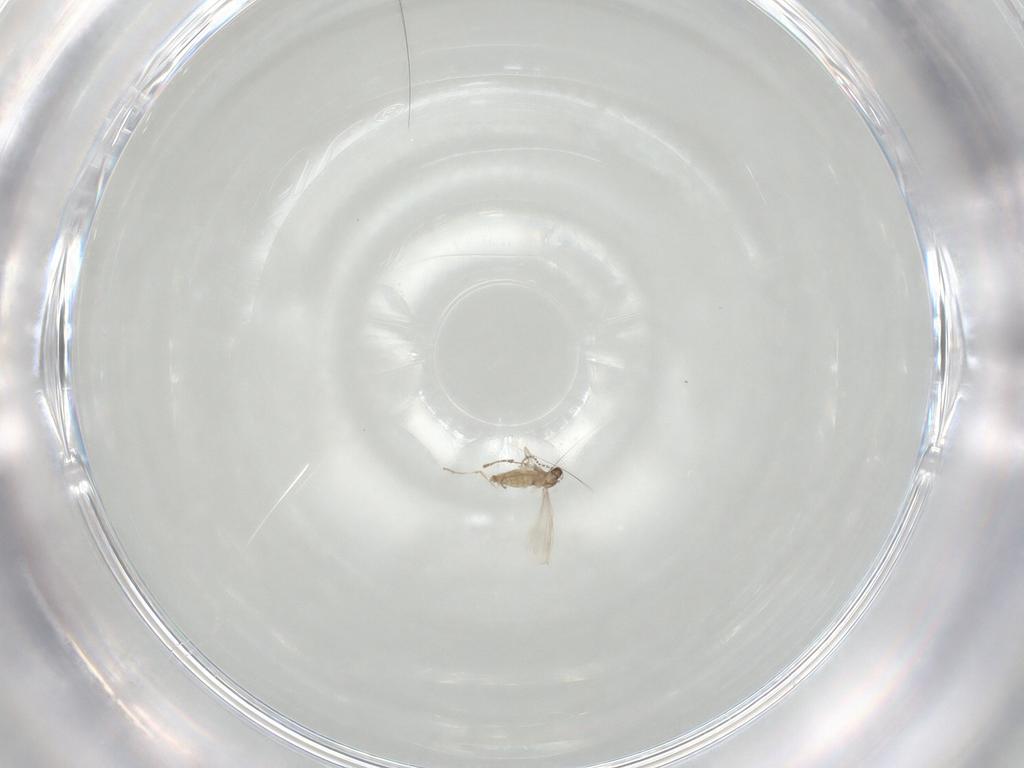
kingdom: Animalia
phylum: Arthropoda
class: Insecta
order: Diptera
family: Cecidomyiidae
